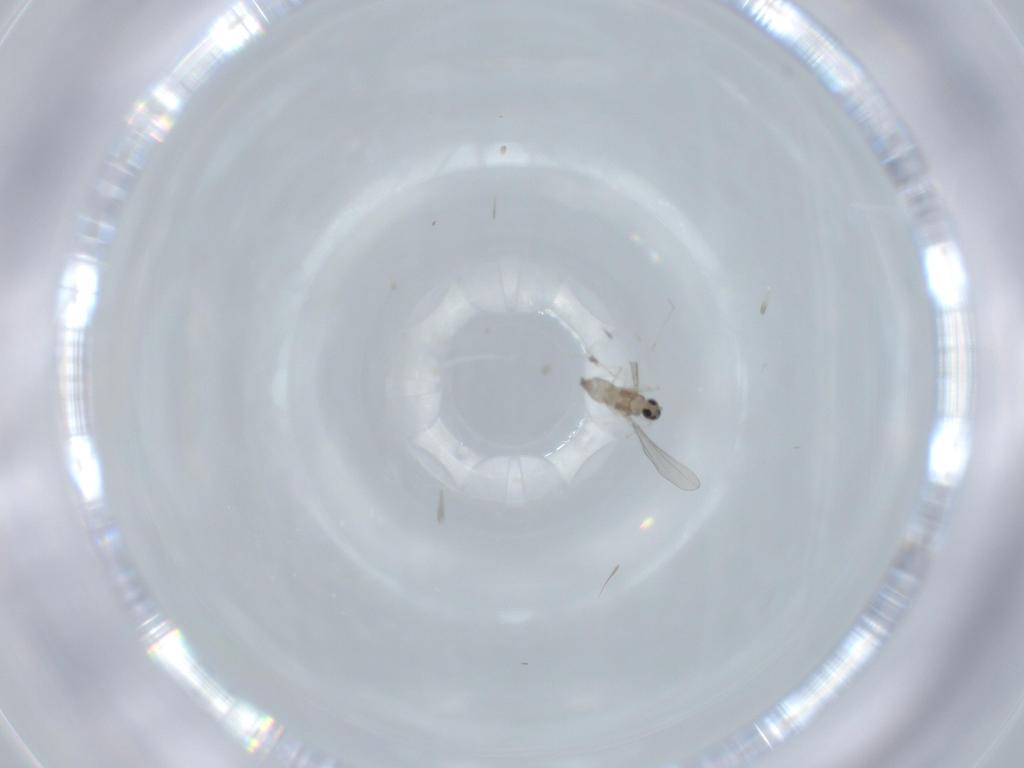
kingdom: Animalia
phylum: Arthropoda
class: Insecta
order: Diptera
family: Cecidomyiidae
